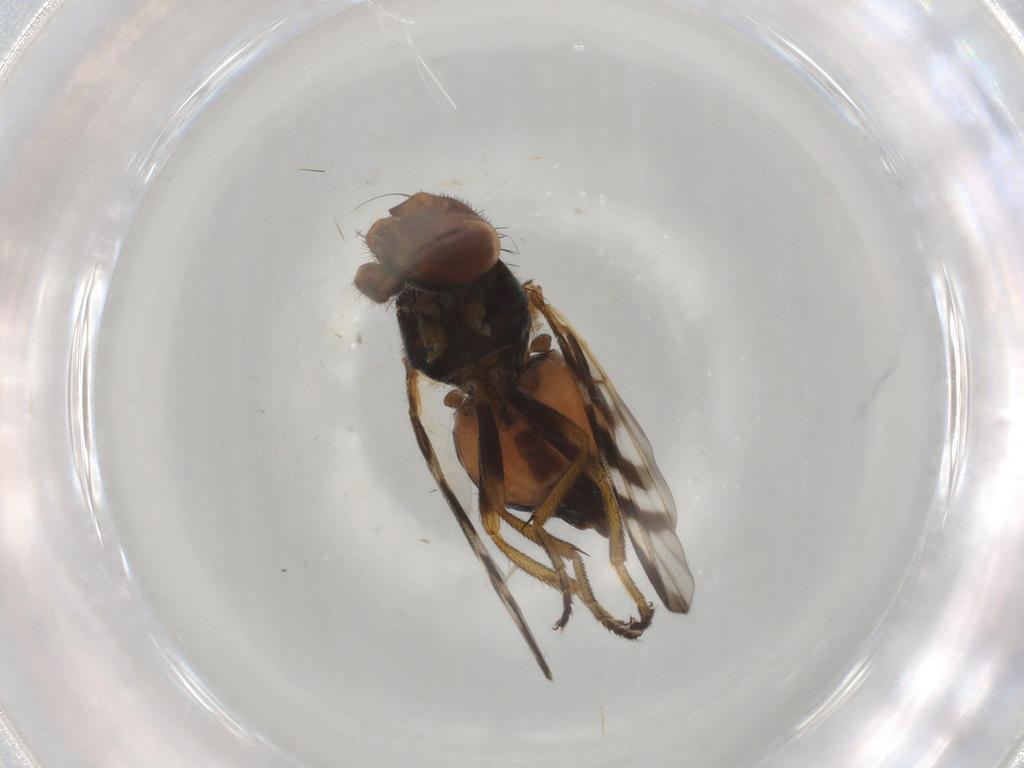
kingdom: Animalia
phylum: Arthropoda
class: Insecta
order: Diptera
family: Platystomatidae
